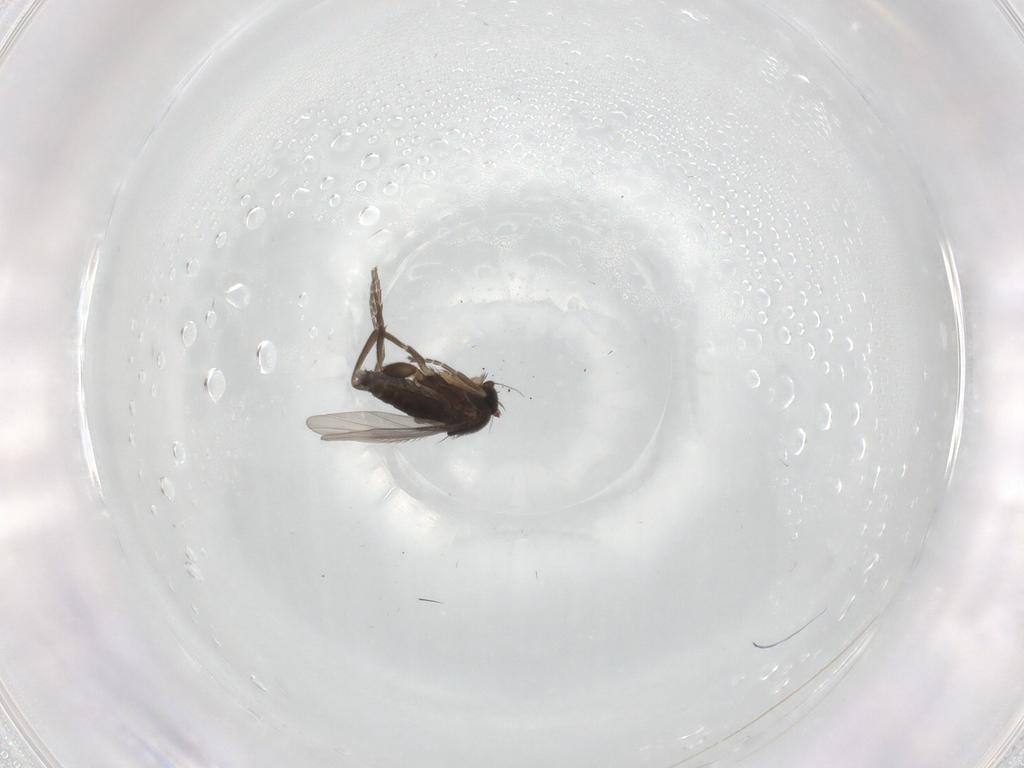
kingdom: Animalia
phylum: Arthropoda
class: Insecta
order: Diptera
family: Phoridae
